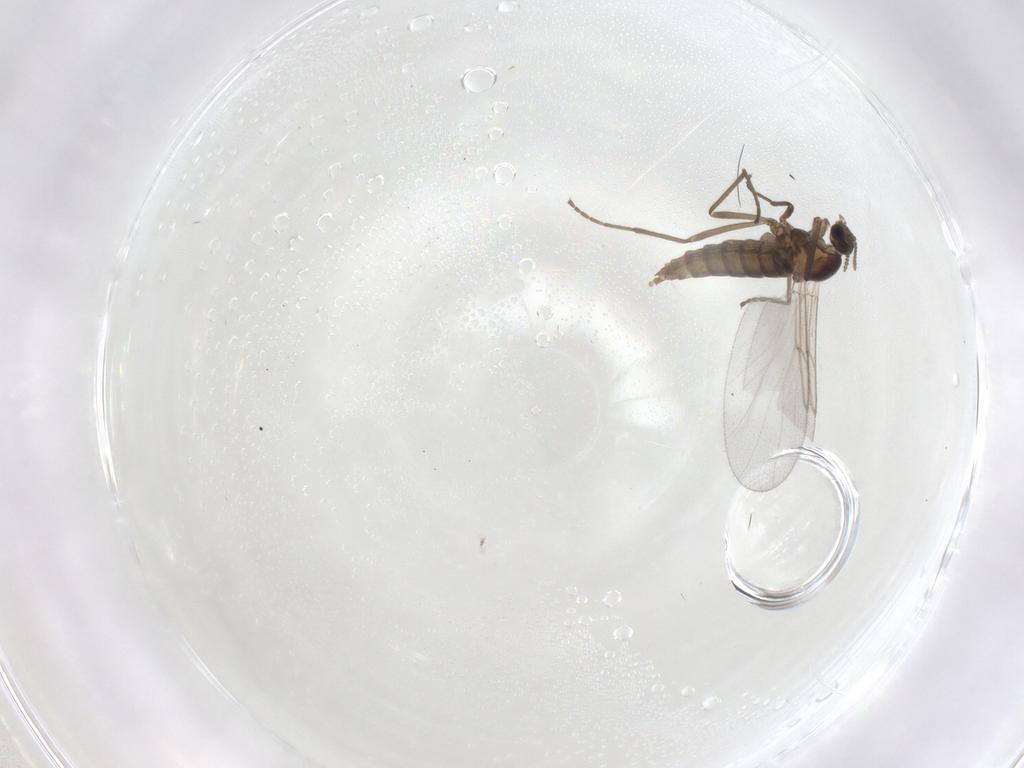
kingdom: Animalia
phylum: Arthropoda
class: Insecta
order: Diptera
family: Cecidomyiidae
